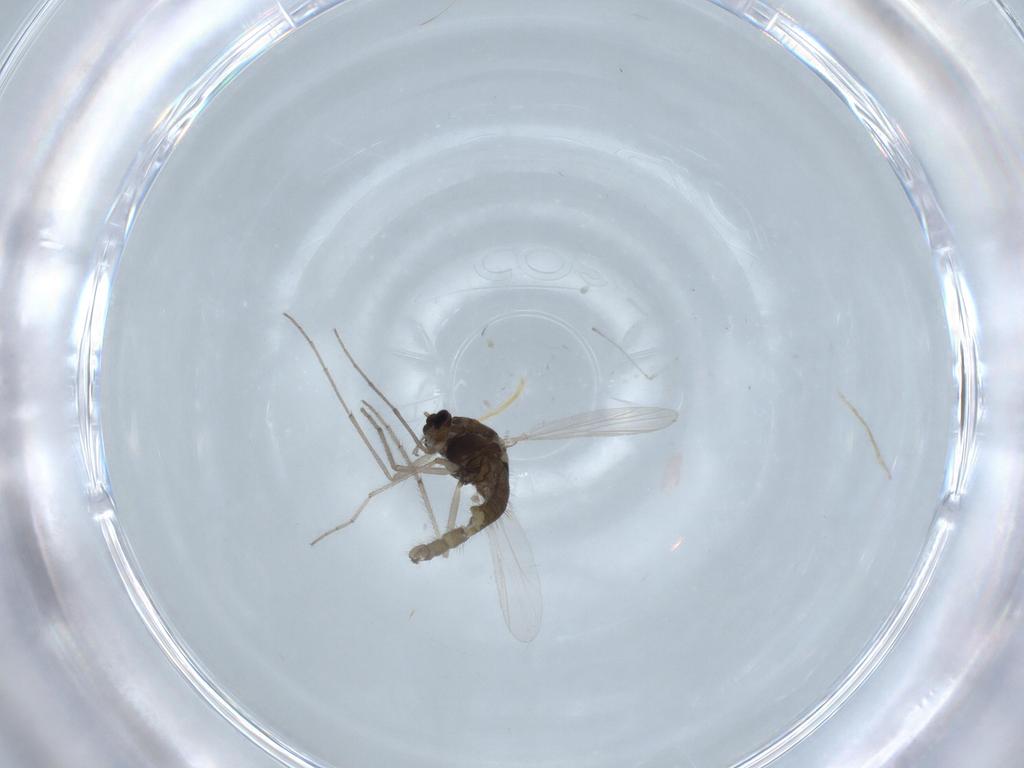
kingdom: Animalia
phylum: Arthropoda
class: Insecta
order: Diptera
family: Chironomidae
